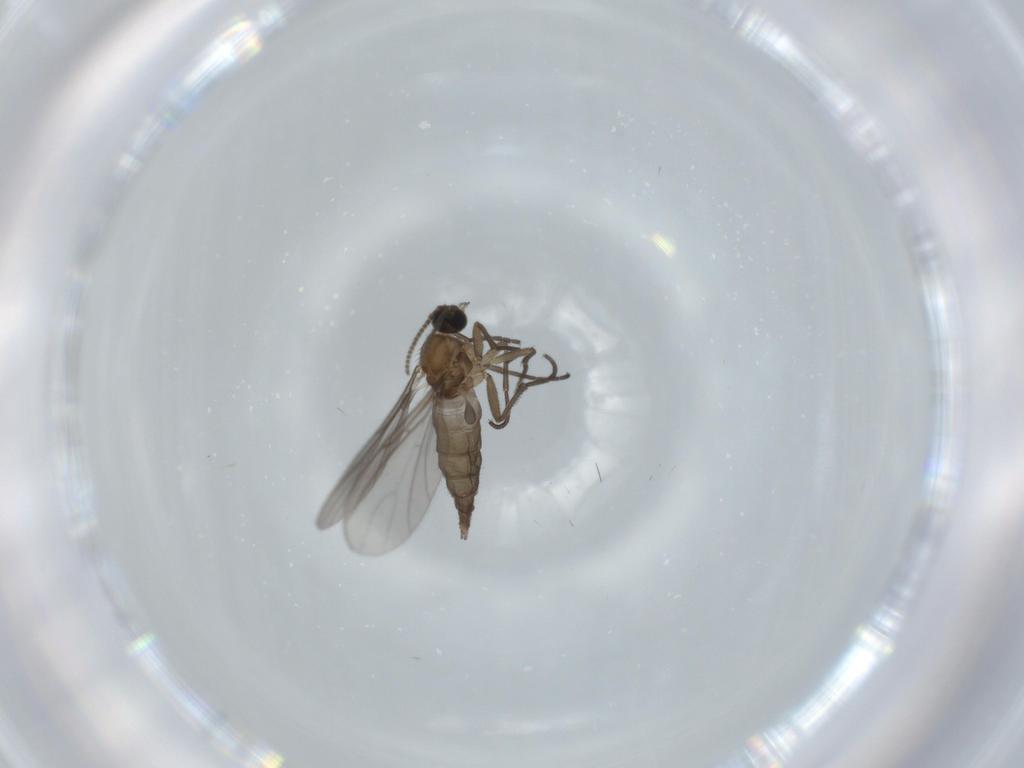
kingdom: Animalia
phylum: Arthropoda
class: Insecta
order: Diptera
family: Sciaridae
